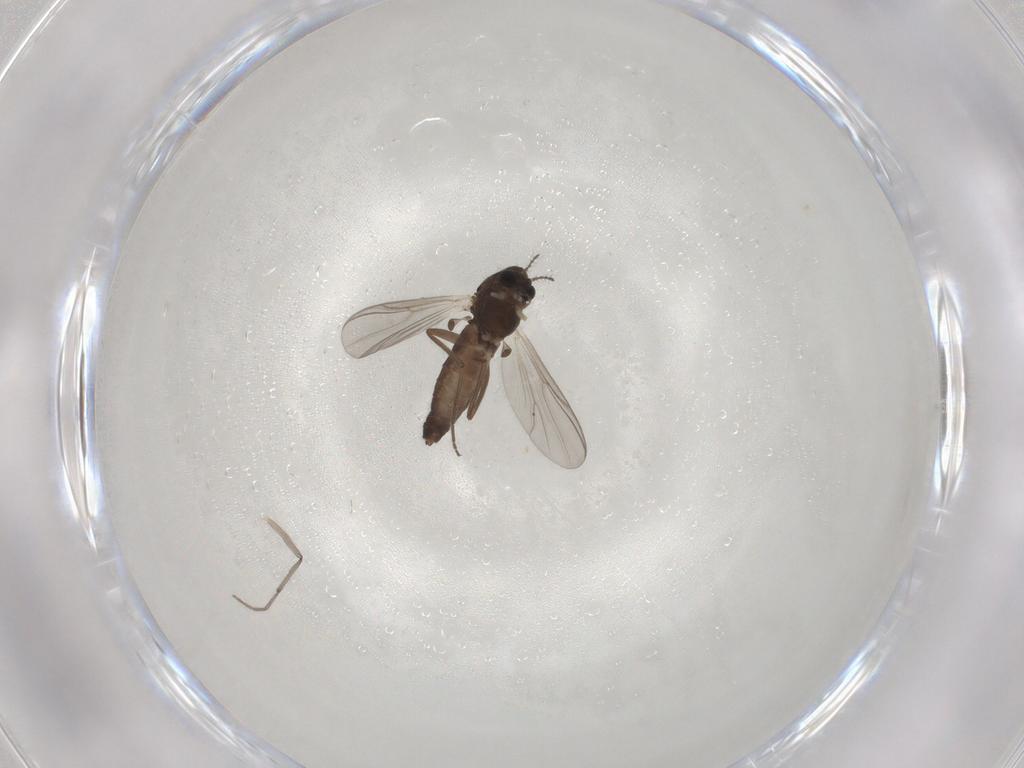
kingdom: Animalia
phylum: Arthropoda
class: Insecta
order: Diptera
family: Chironomidae
